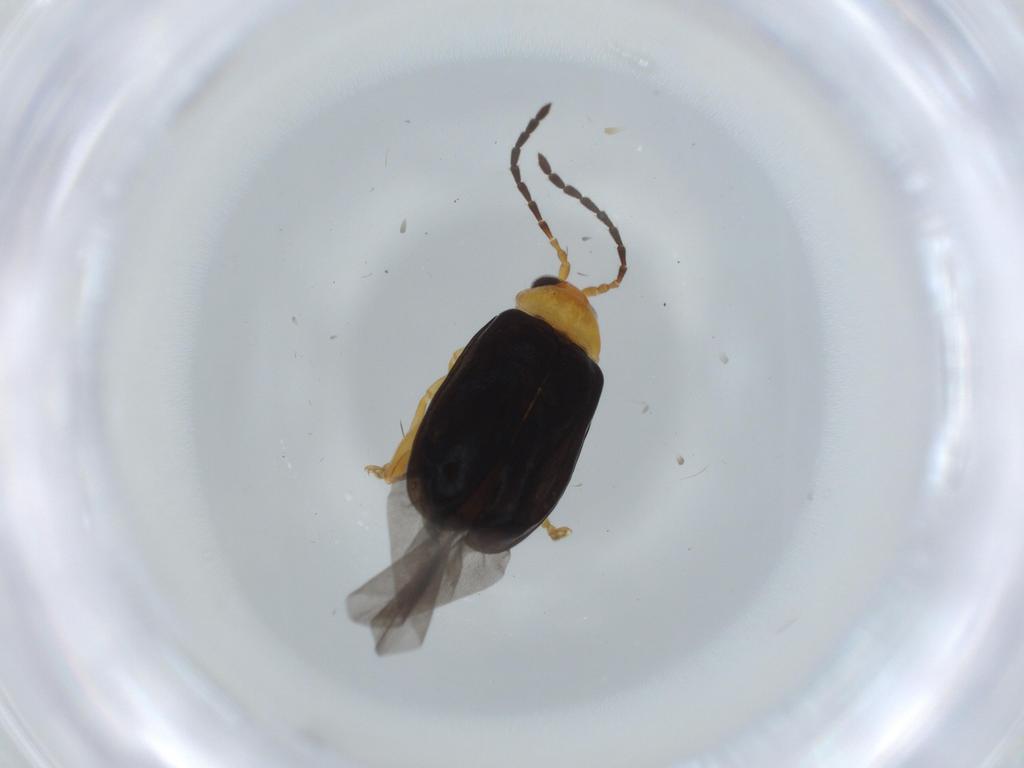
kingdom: Animalia
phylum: Arthropoda
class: Insecta
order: Coleoptera
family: Chrysomelidae
